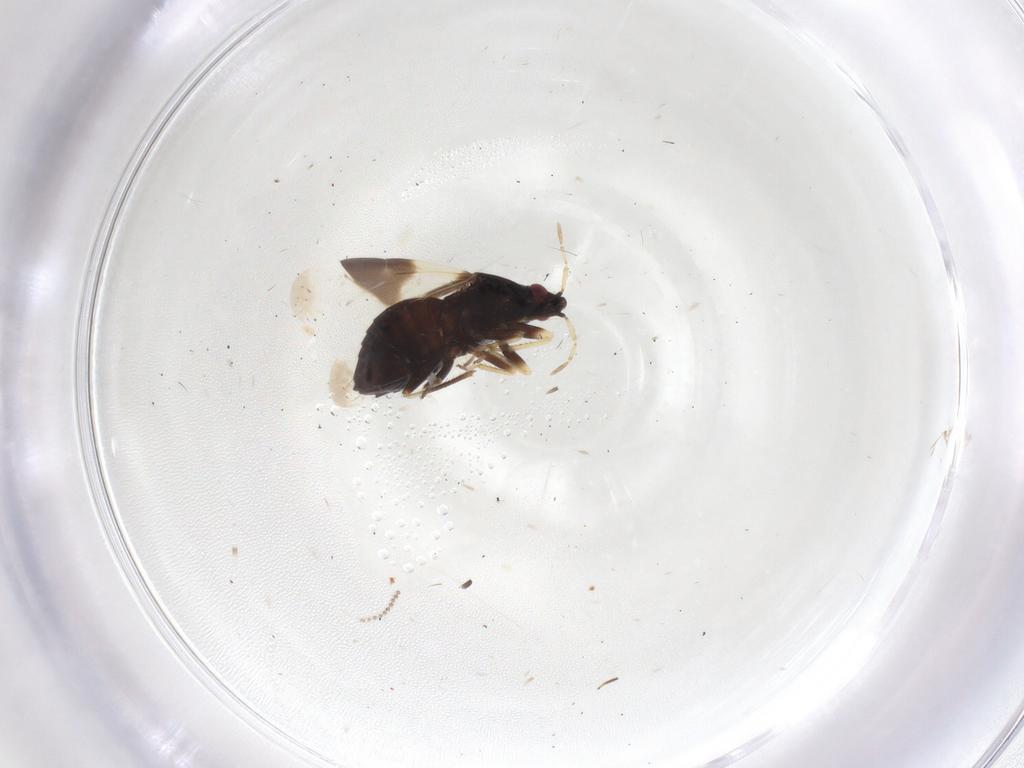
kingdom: Animalia
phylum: Arthropoda
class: Insecta
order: Hemiptera
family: Anthocoridae
